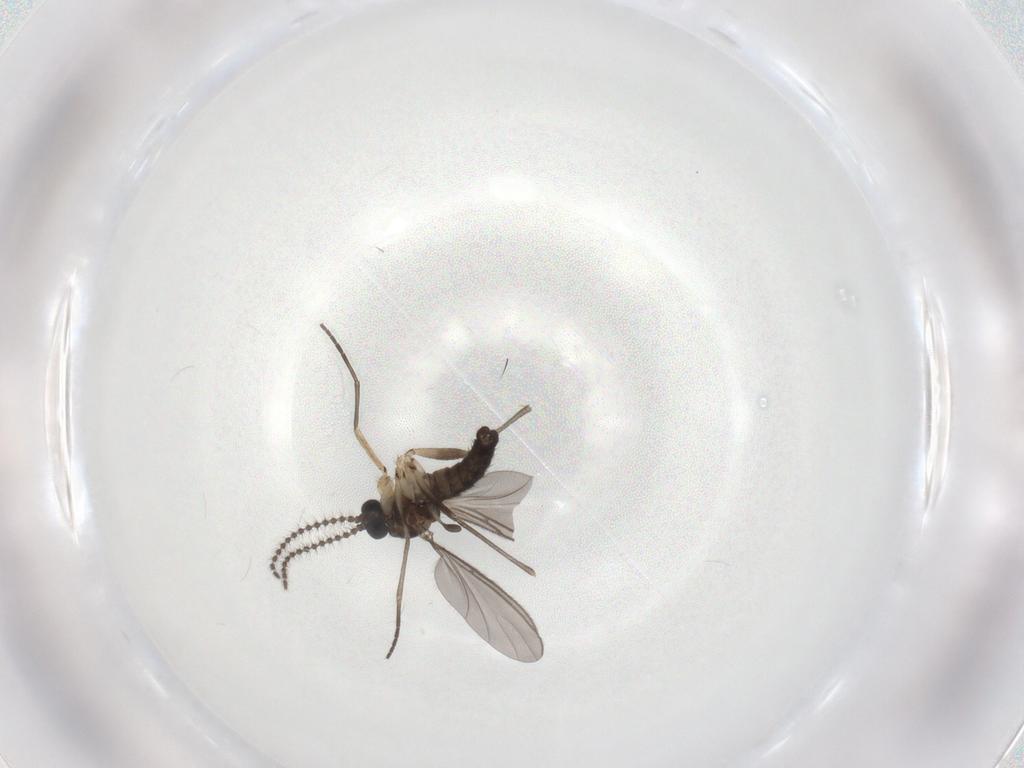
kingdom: Animalia
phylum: Arthropoda
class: Insecta
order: Diptera
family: Sciaridae
